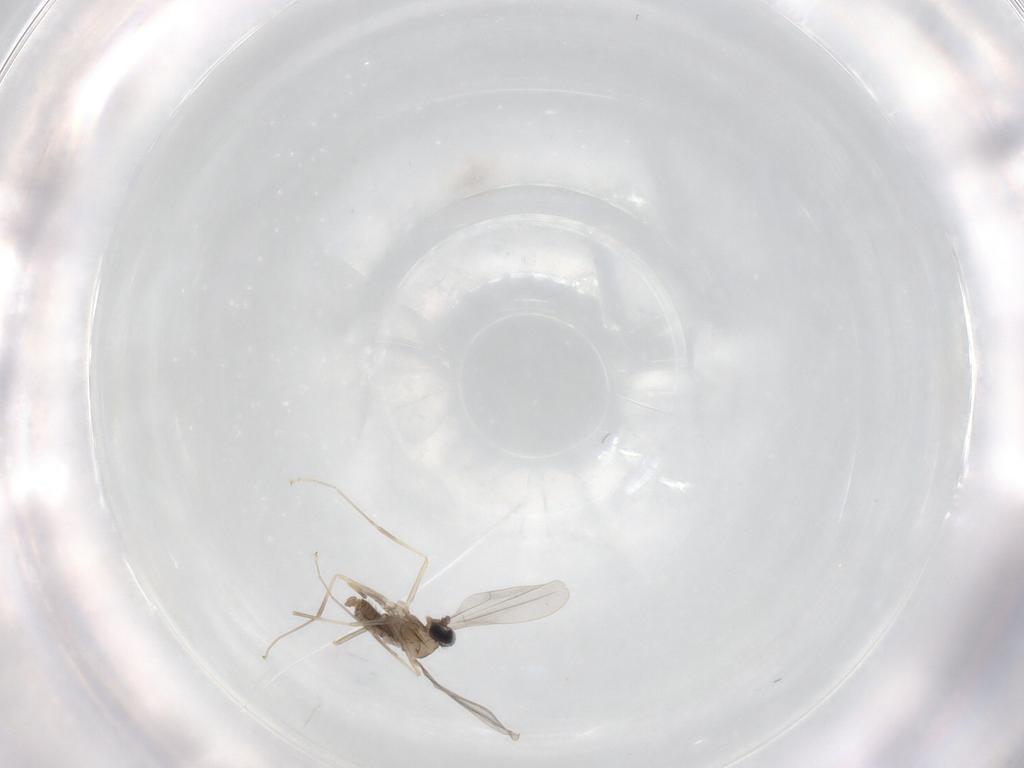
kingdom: Animalia
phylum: Arthropoda
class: Insecta
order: Diptera
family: Cecidomyiidae
